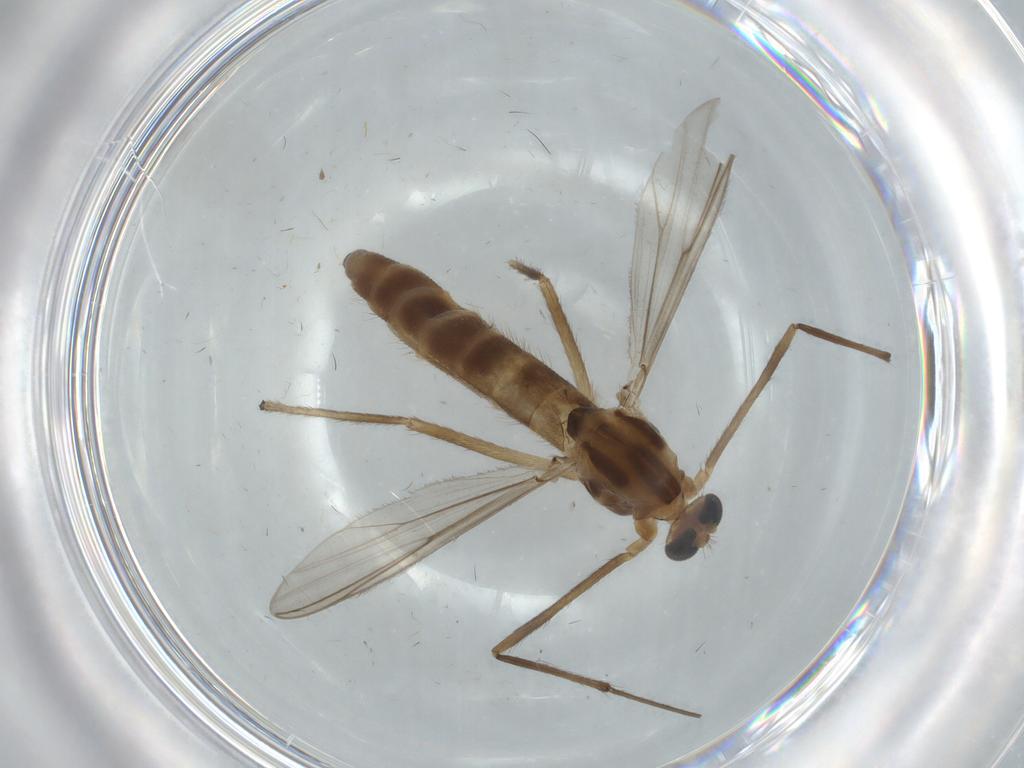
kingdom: Animalia
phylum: Arthropoda
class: Insecta
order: Diptera
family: Chironomidae
